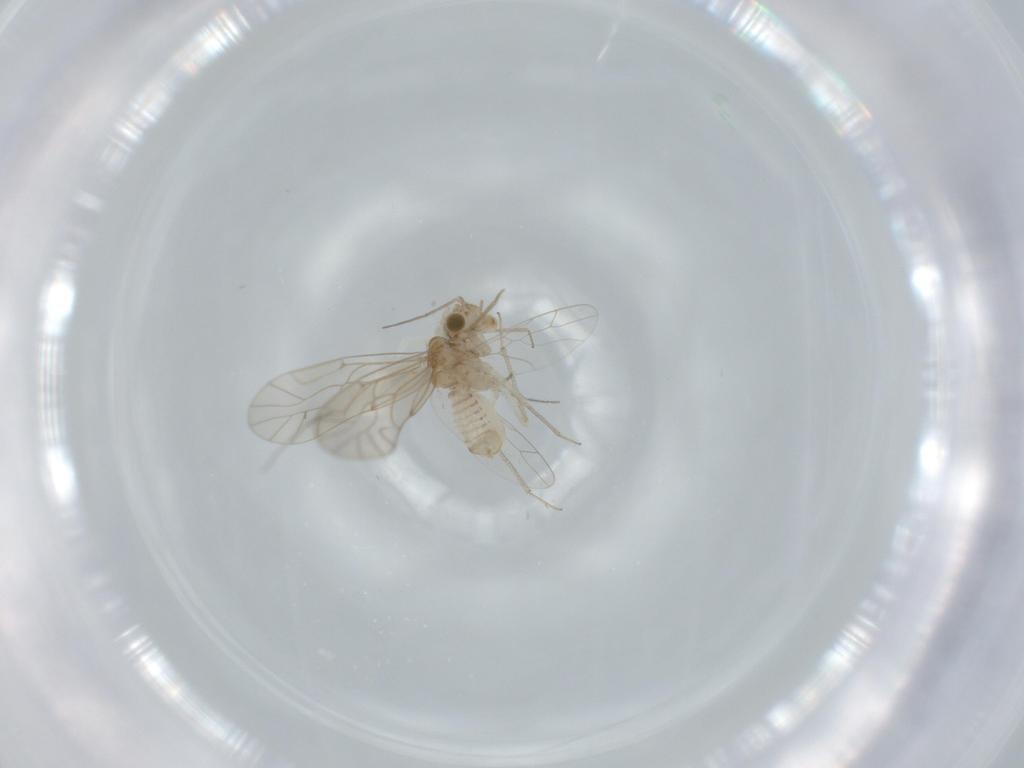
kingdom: Animalia
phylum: Arthropoda
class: Insecta
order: Psocodea
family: Lachesillidae
